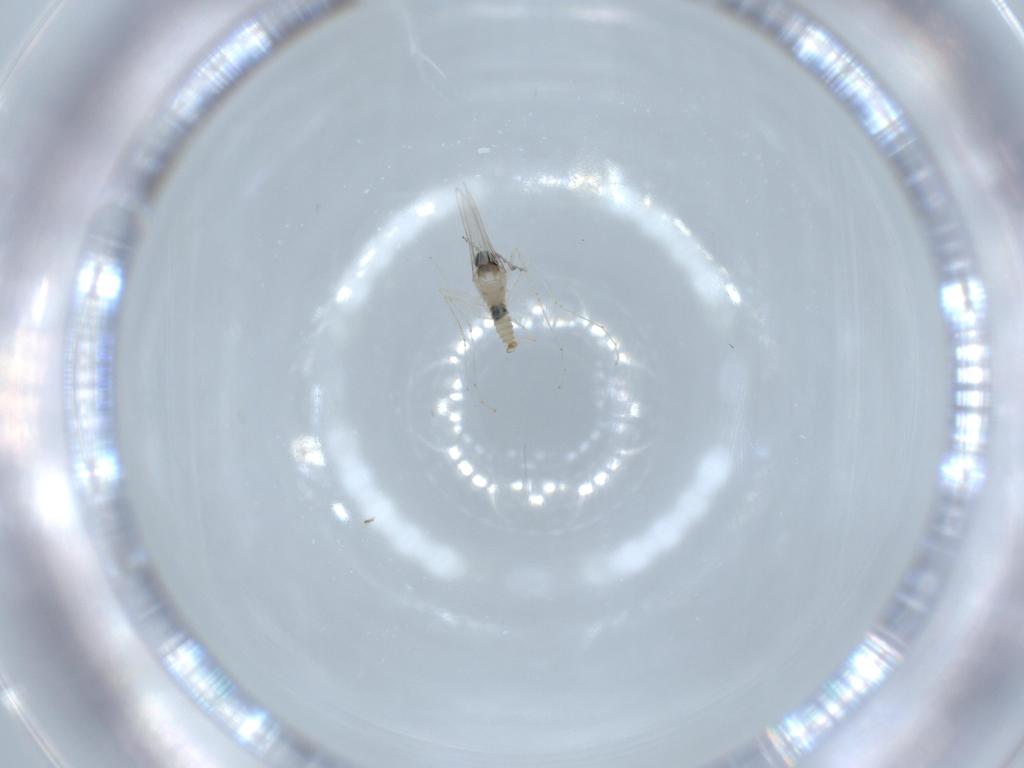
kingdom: Animalia
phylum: Arthropoda
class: Insecta
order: Diptera
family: Cecidomyiidae
